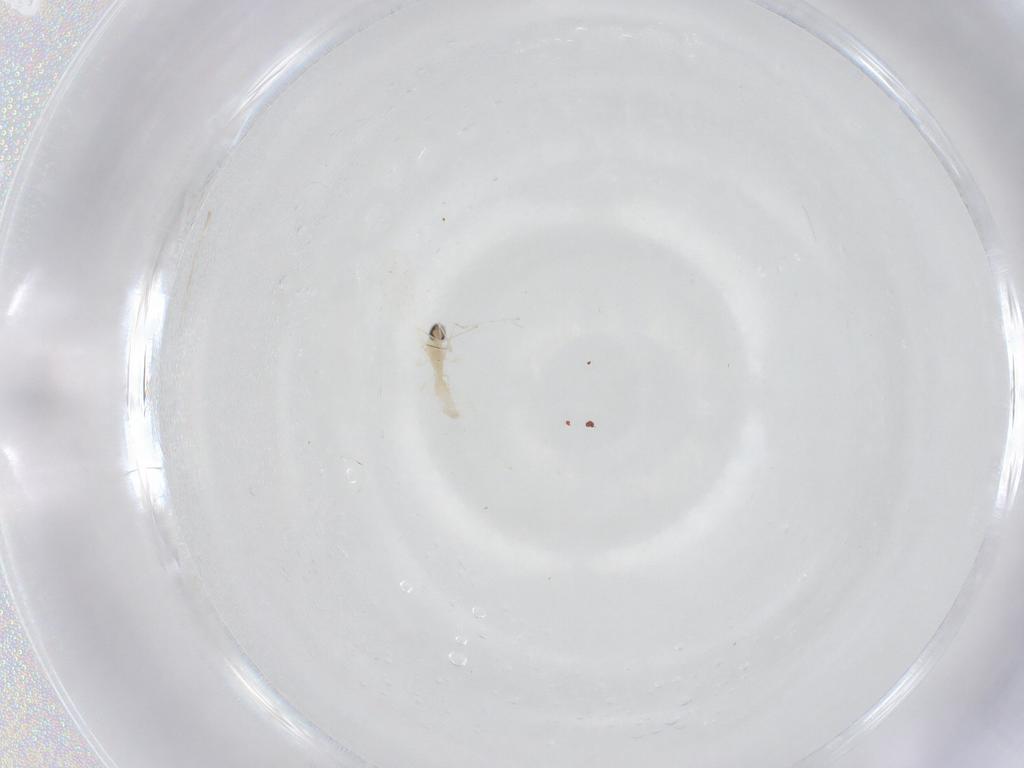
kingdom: Animalia
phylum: Arthropoda
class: Insecta
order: Diptera
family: Cecidomyiidae
